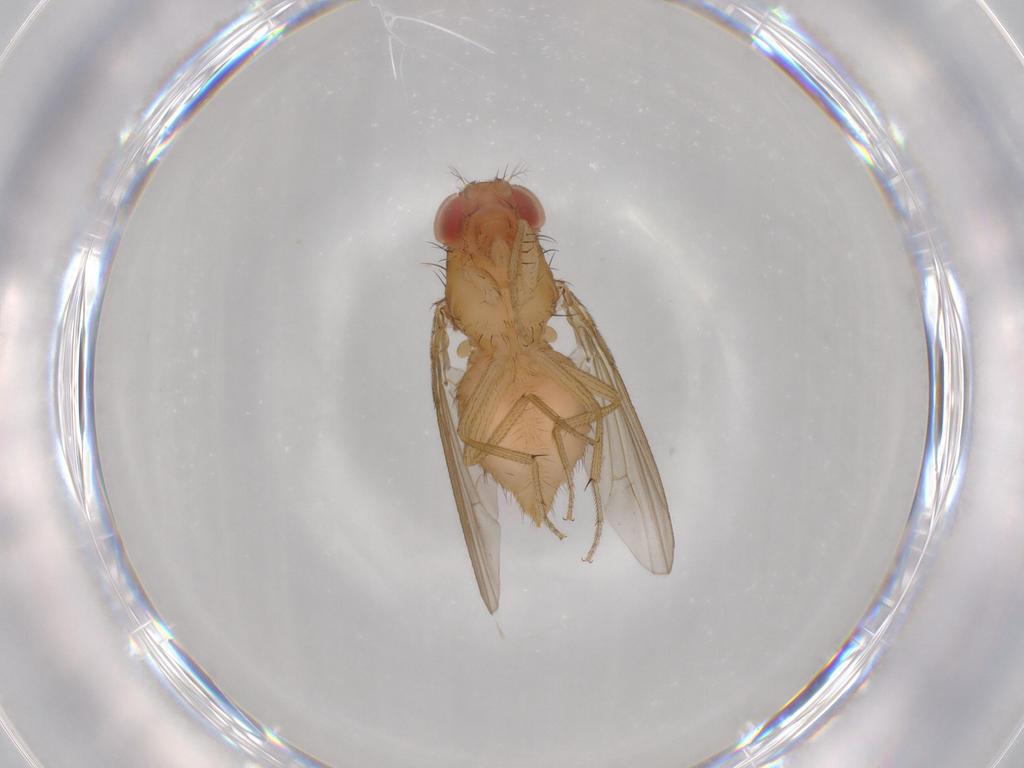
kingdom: Animalia
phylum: Arthropoda
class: Insecta
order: Diptera
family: Drosophilidae
